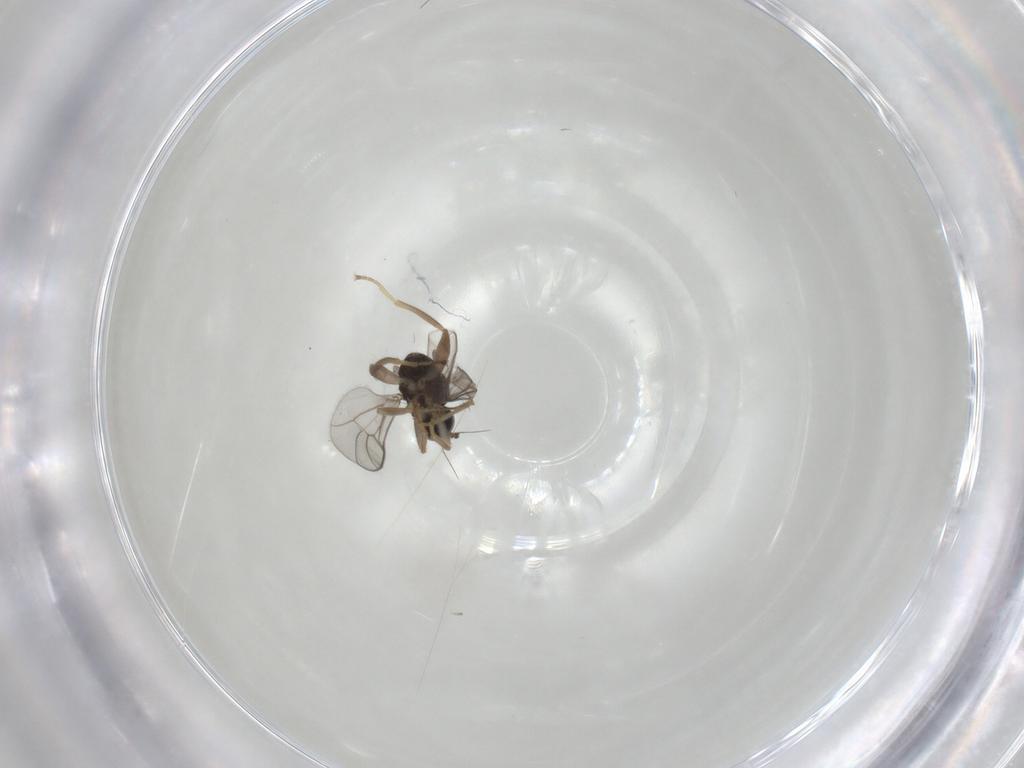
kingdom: Animalia
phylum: Arthropoda
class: Insecta
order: Diptera
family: Hybotidae
